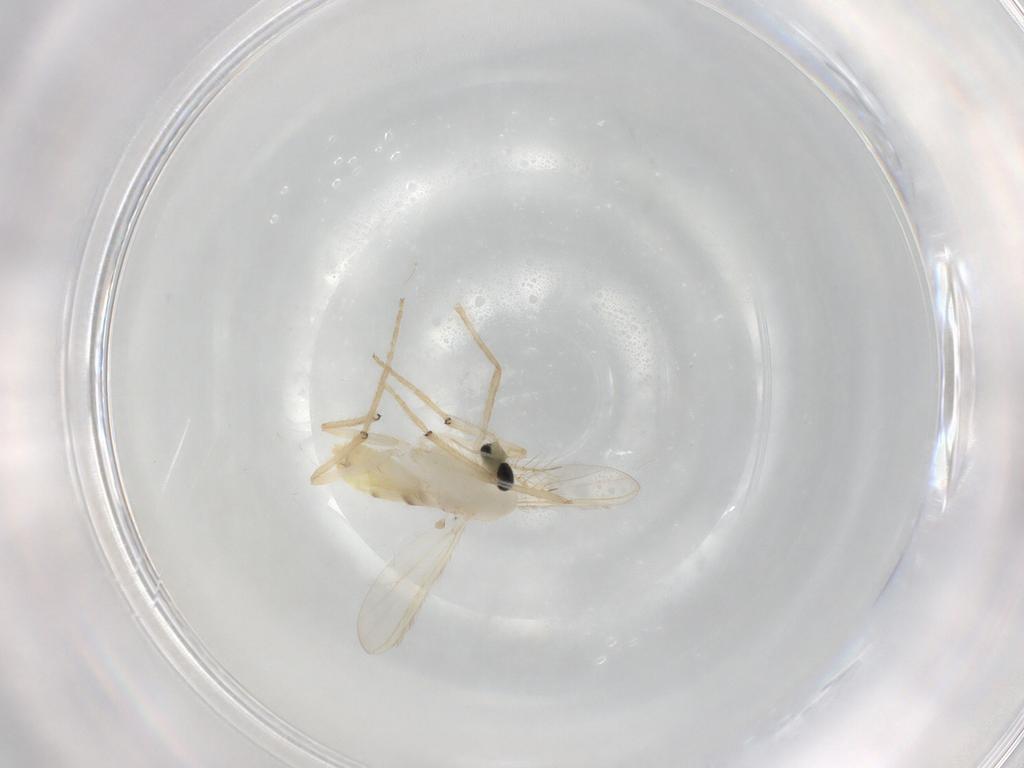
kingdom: Animalia
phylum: Arthropoda
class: Insecta
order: Diptera
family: Chironomidae
